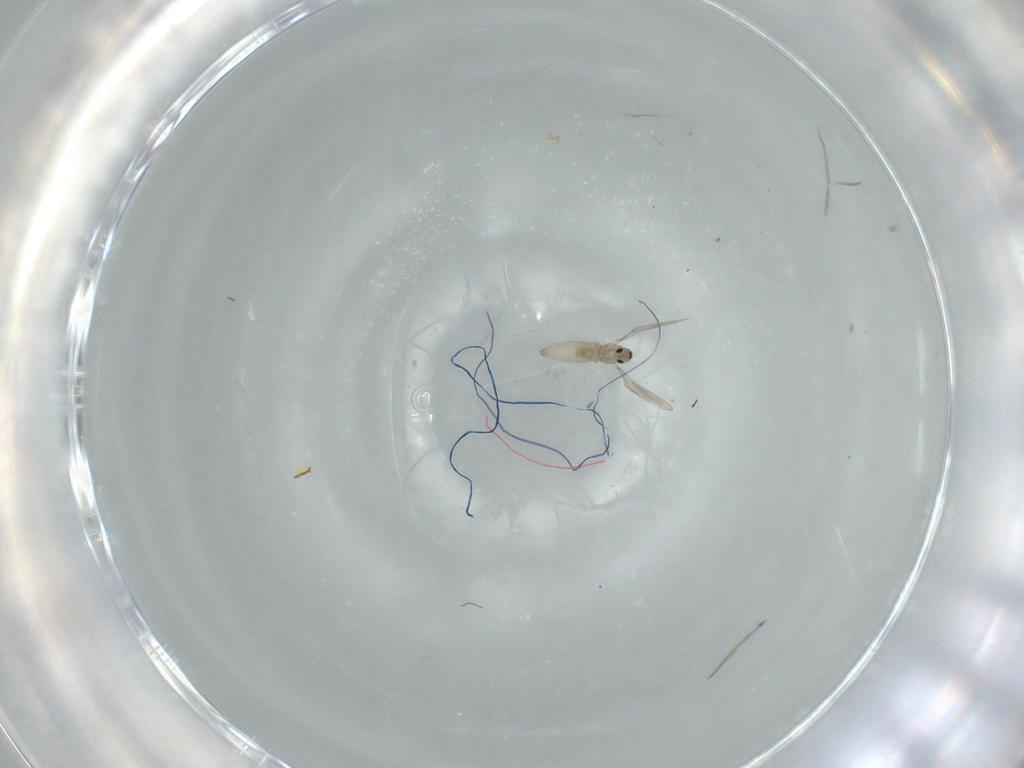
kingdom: Animalia
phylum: Arthropoda
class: Insecta
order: Diptera
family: Cecidomyiidae
